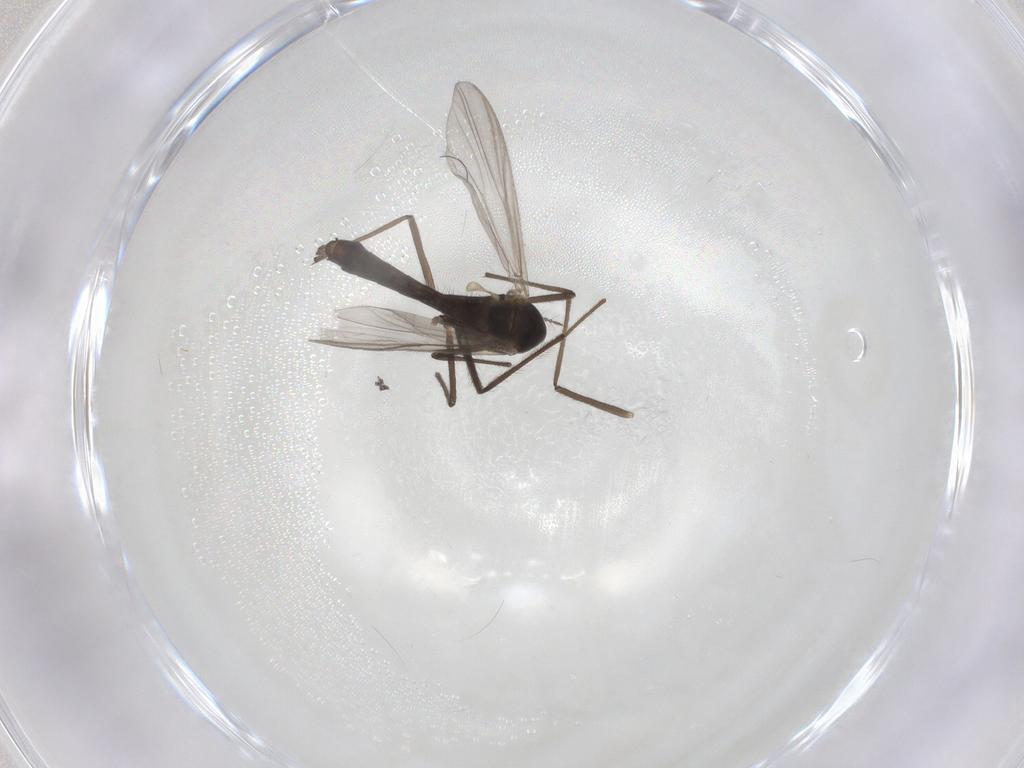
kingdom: Animalia
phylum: Arthropoda
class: Insecta
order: Diptera
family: Chironomidae
